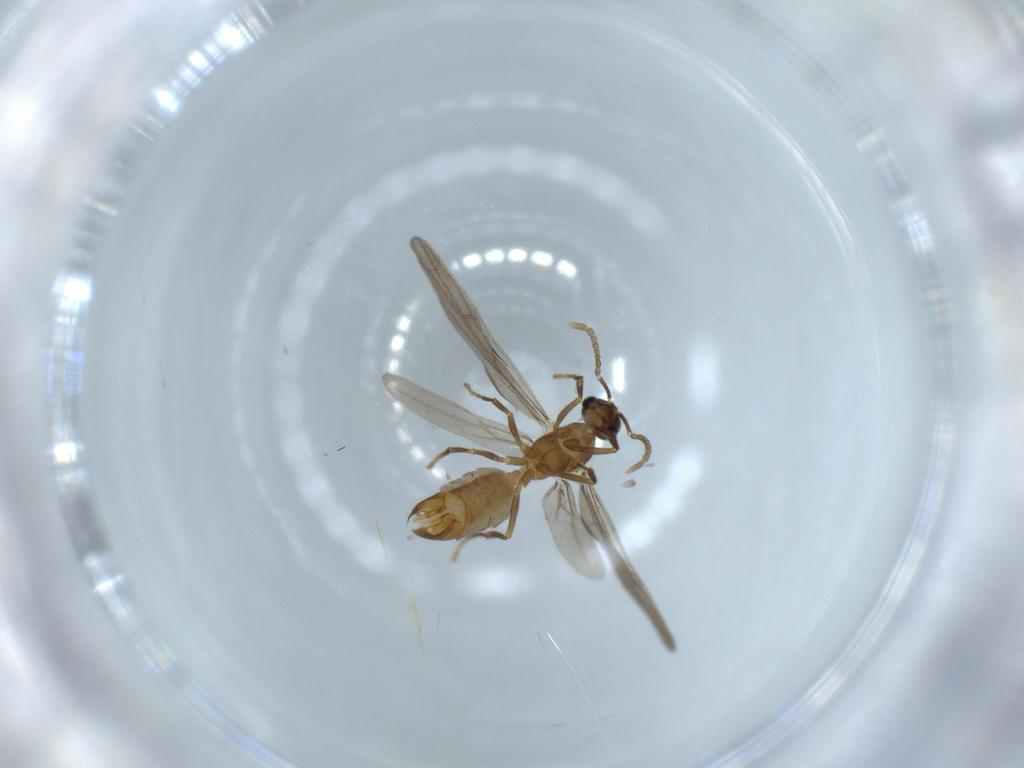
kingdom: Animalia
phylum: Arthropoda
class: Insecta
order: Hymenoptera
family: Formicidae
